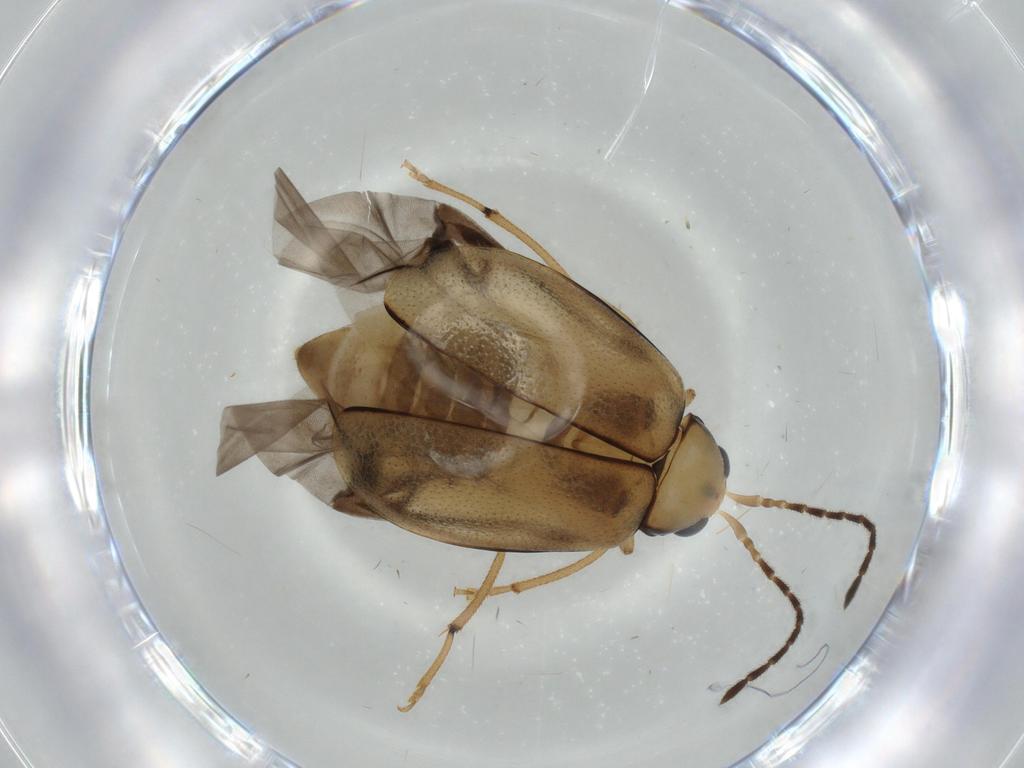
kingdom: Animalia
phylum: Arthropoda
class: Insecta
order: Coleoptera
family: Chrysomelidae
